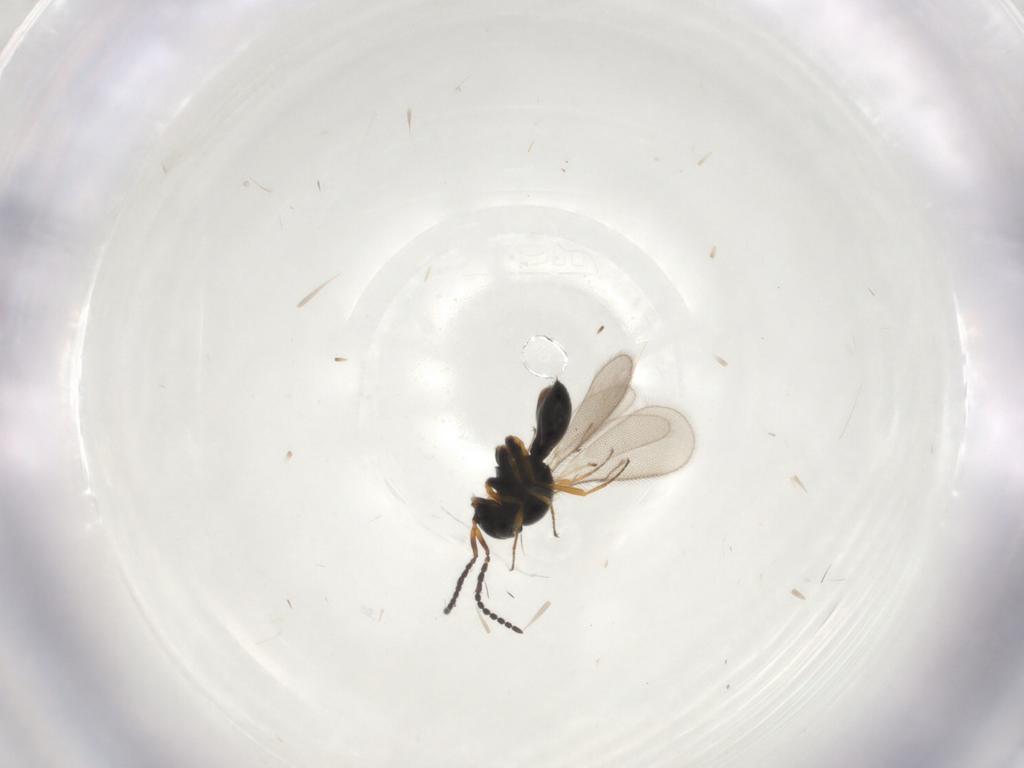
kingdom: Animalia
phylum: Arthropoda
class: Insecta
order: Hymenoptera
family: Scelionidae
